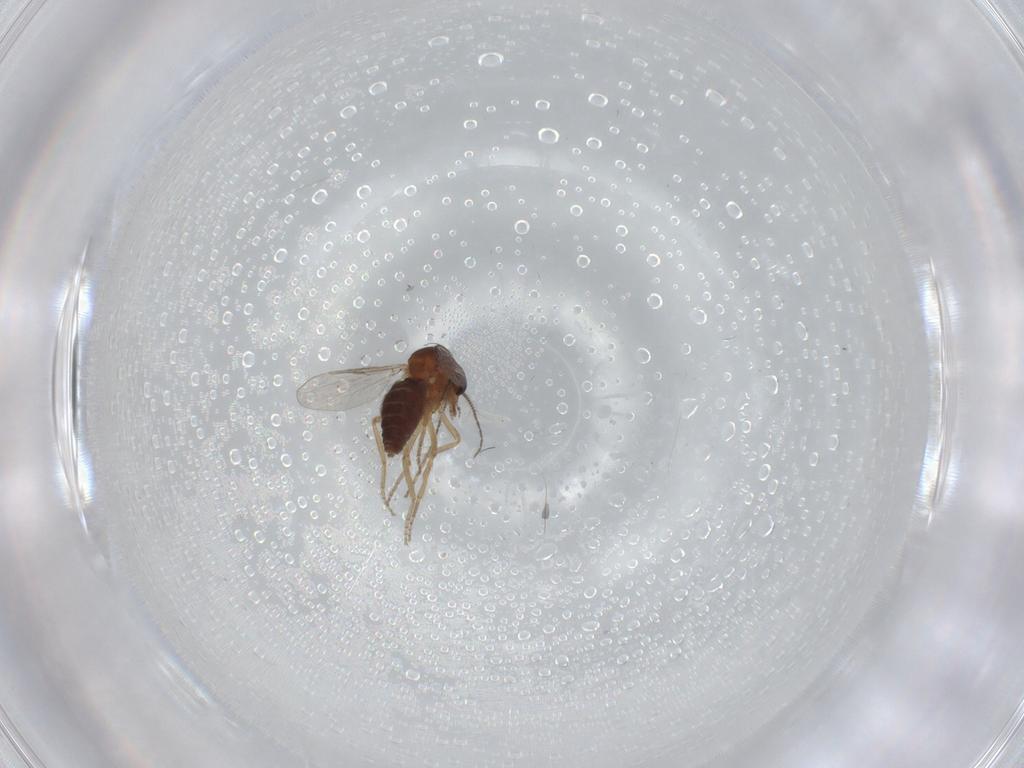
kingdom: Animalia
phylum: Arthropoda
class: Insecta
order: Diptera
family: Ceratopogonidae
